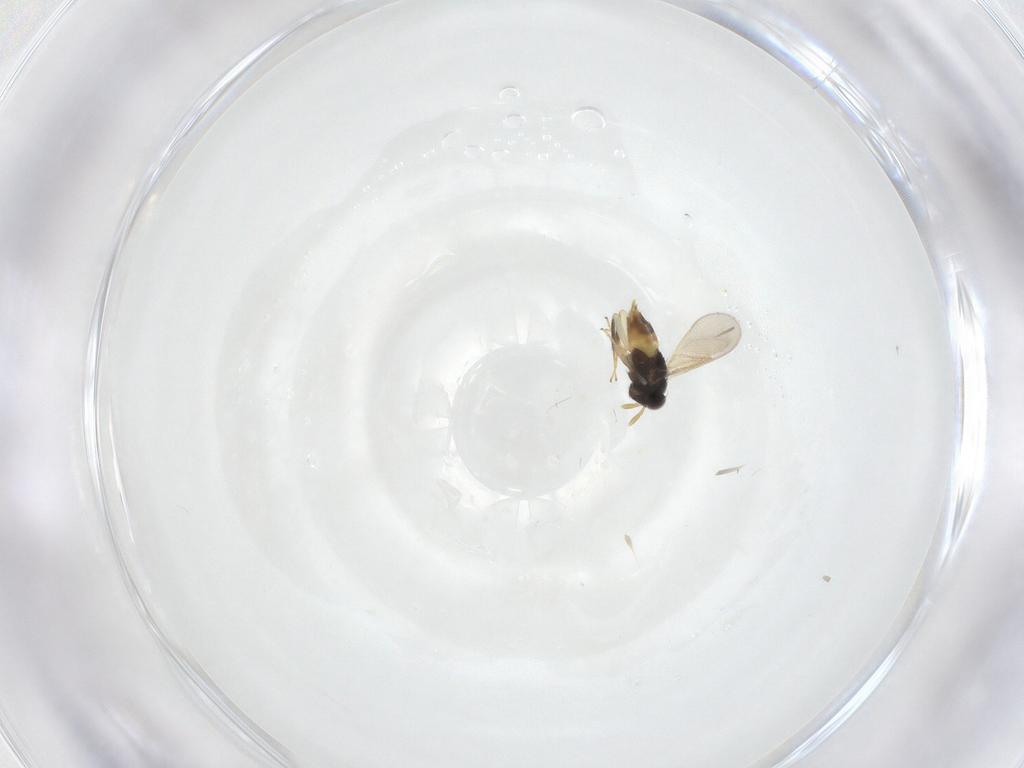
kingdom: Animalia
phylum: Arthropoda
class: Insecta
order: Hymenoptera
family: Aphelinidae
